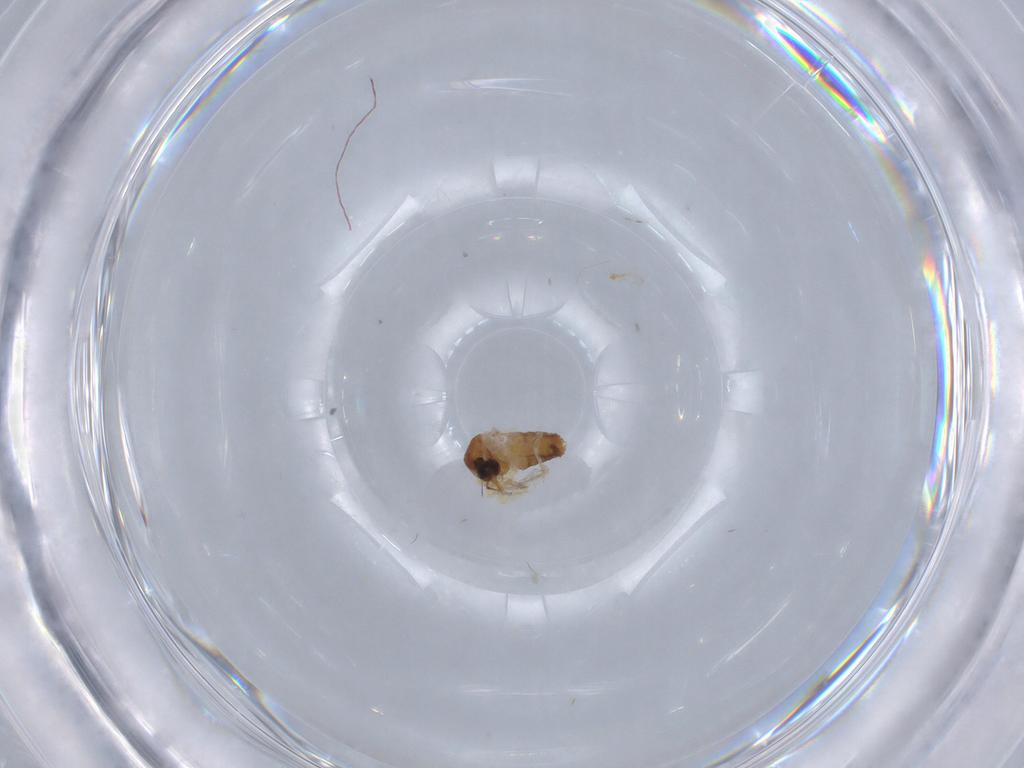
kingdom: Animalia
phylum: Arthropoda
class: Insecta
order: Diptera
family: Ceratopogonidae
